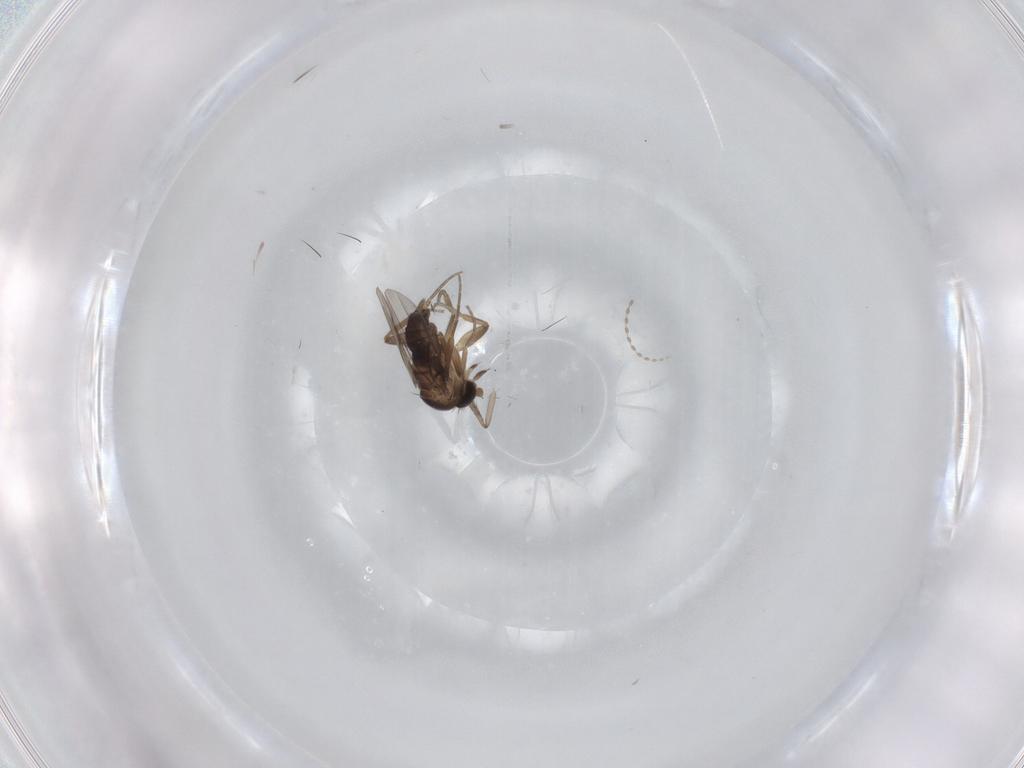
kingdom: Animalia
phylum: Arthropoda
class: Insecta
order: Diptera
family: Phoridae
